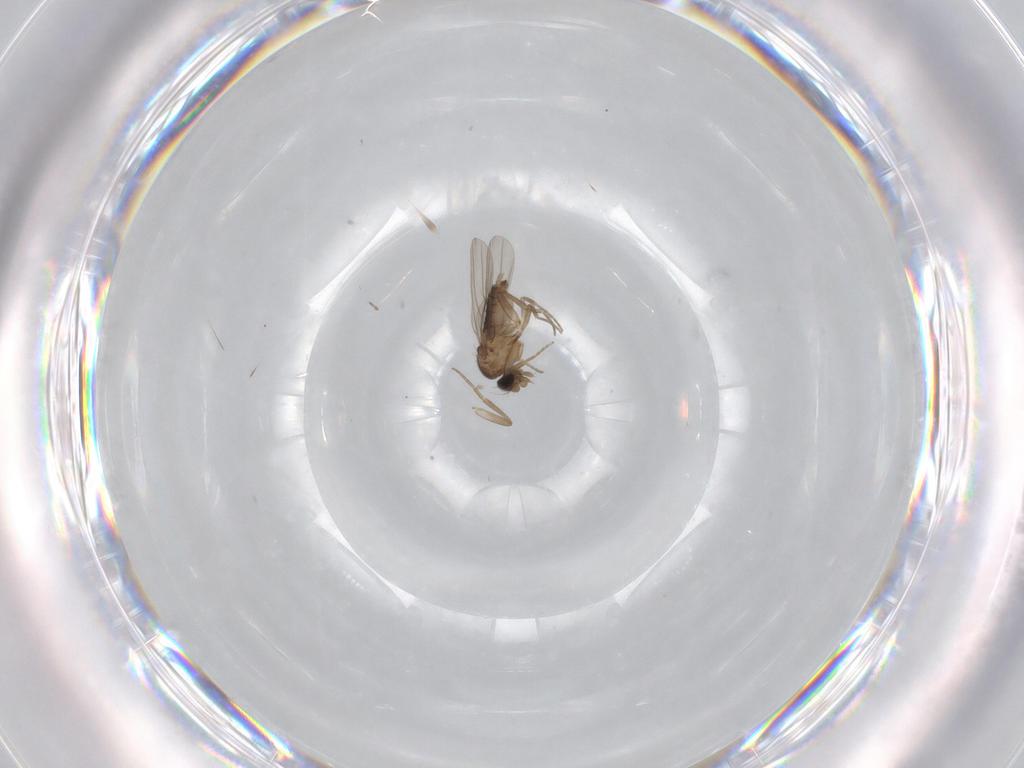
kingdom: Animalia
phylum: Arthropoda
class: Insecta
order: Diptera
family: Phoridae
